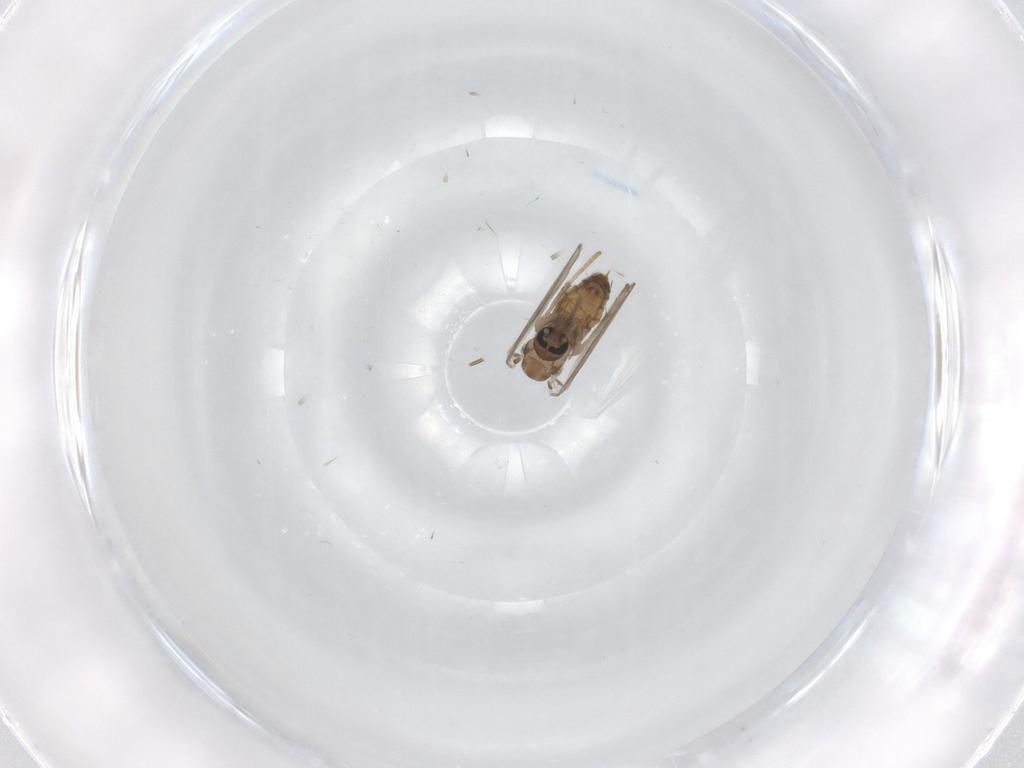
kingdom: Animalia
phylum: Arthropoda
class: Insecta
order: Diptera
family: Psychodidae
